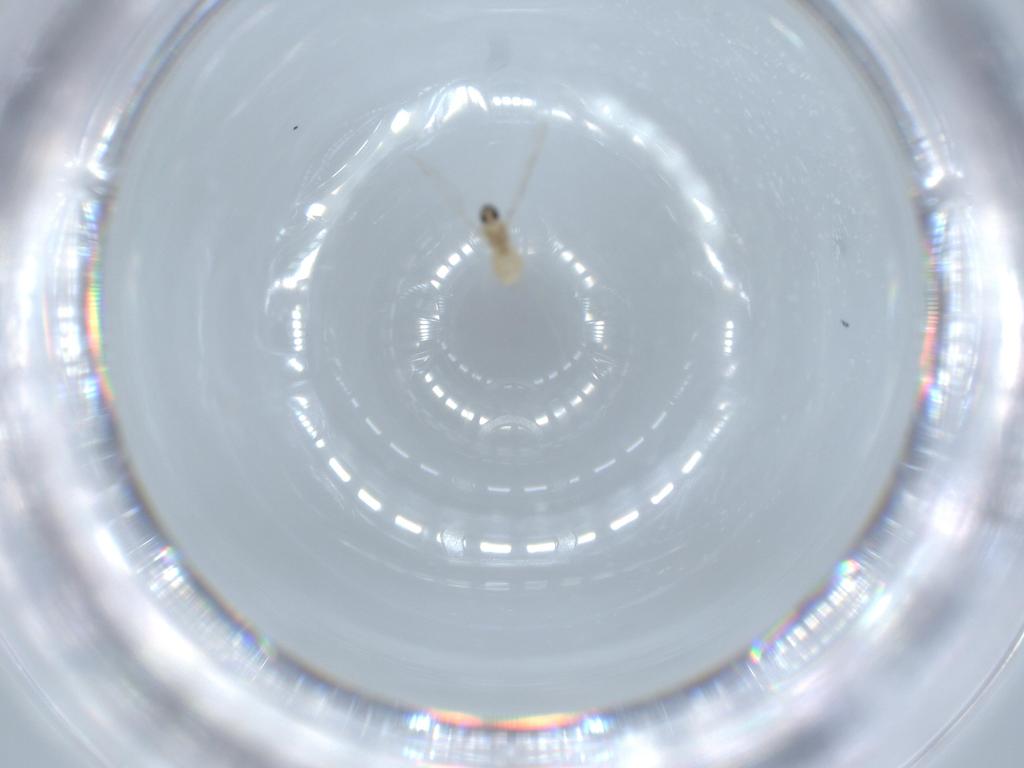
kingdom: Animalia
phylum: Arthropoda
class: Insecta
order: Diptera
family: Cecidomyiidae
